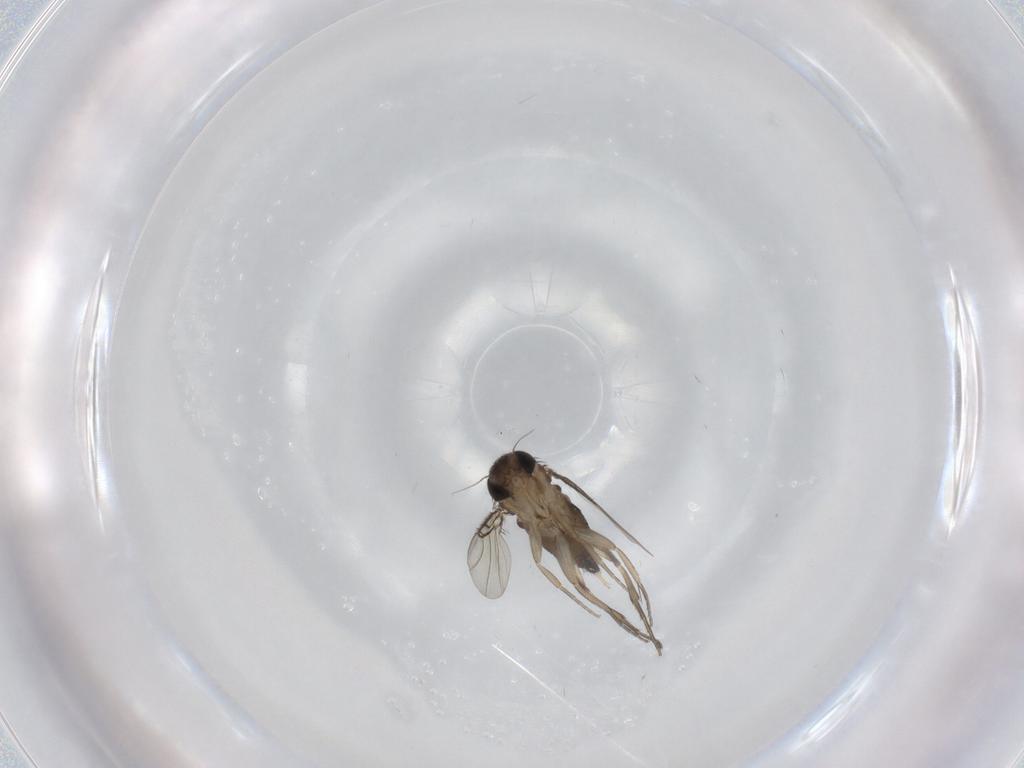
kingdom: Animalia
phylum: Arthropoda
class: Insecta
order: Diptera
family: Phoridae
